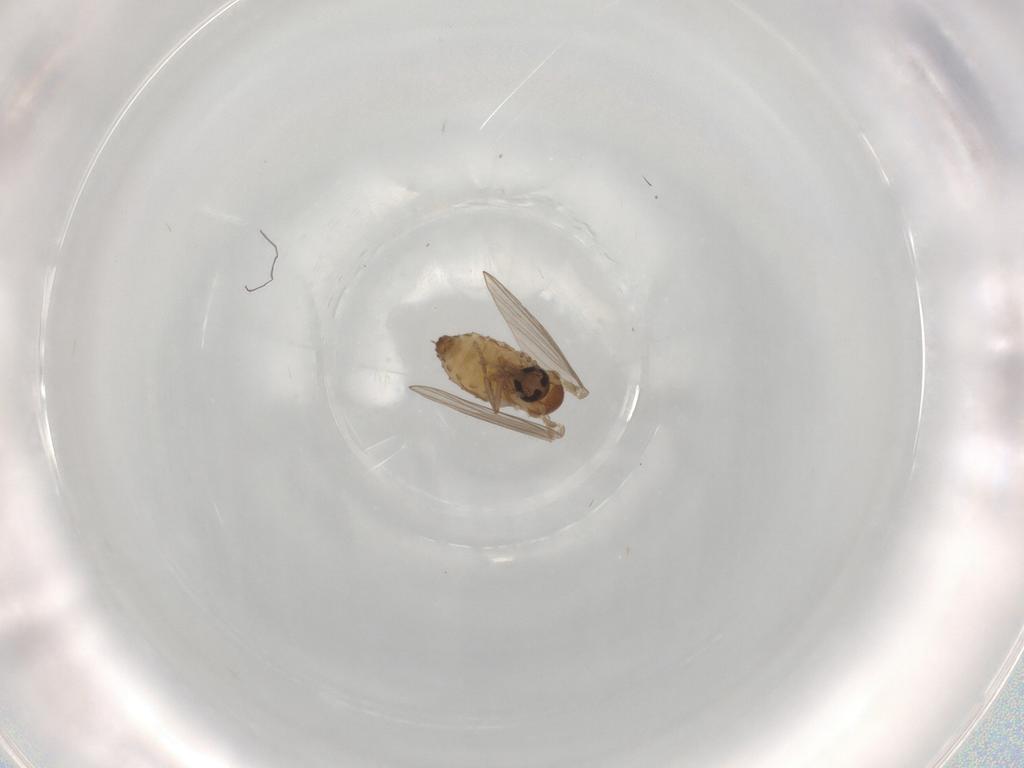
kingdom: Animalia
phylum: Arthropoda
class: Insecta
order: Diptera
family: Psychodidae
